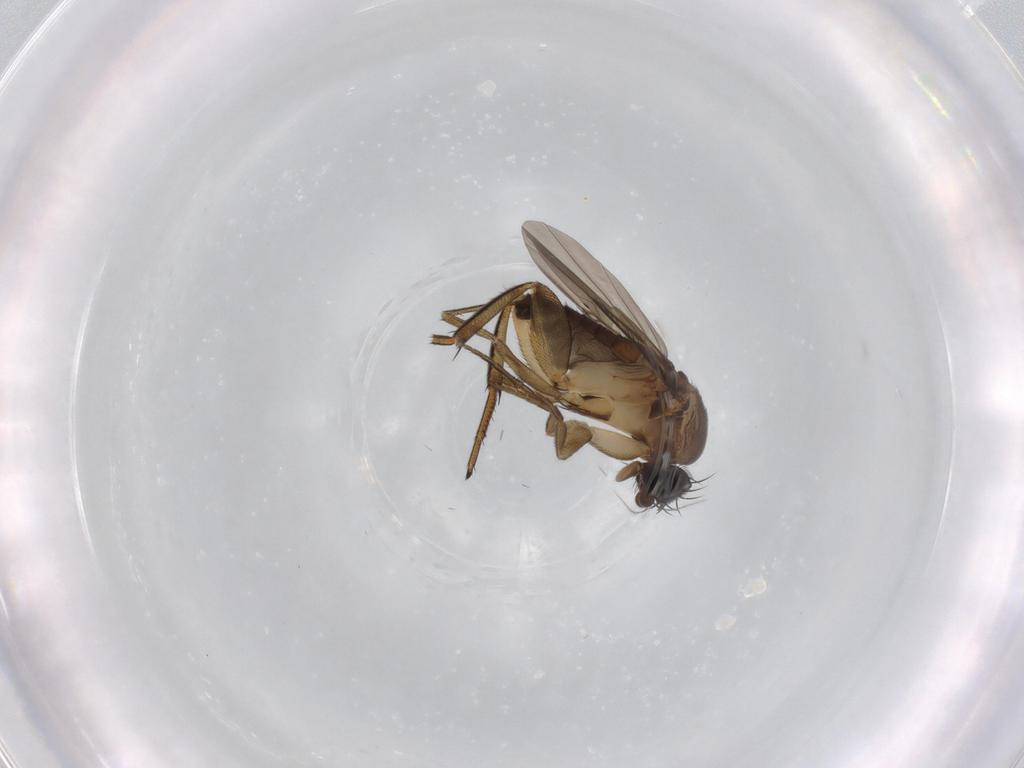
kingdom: Animalia
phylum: Arthropoda
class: Insecta
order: Diptera
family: Phoridae
